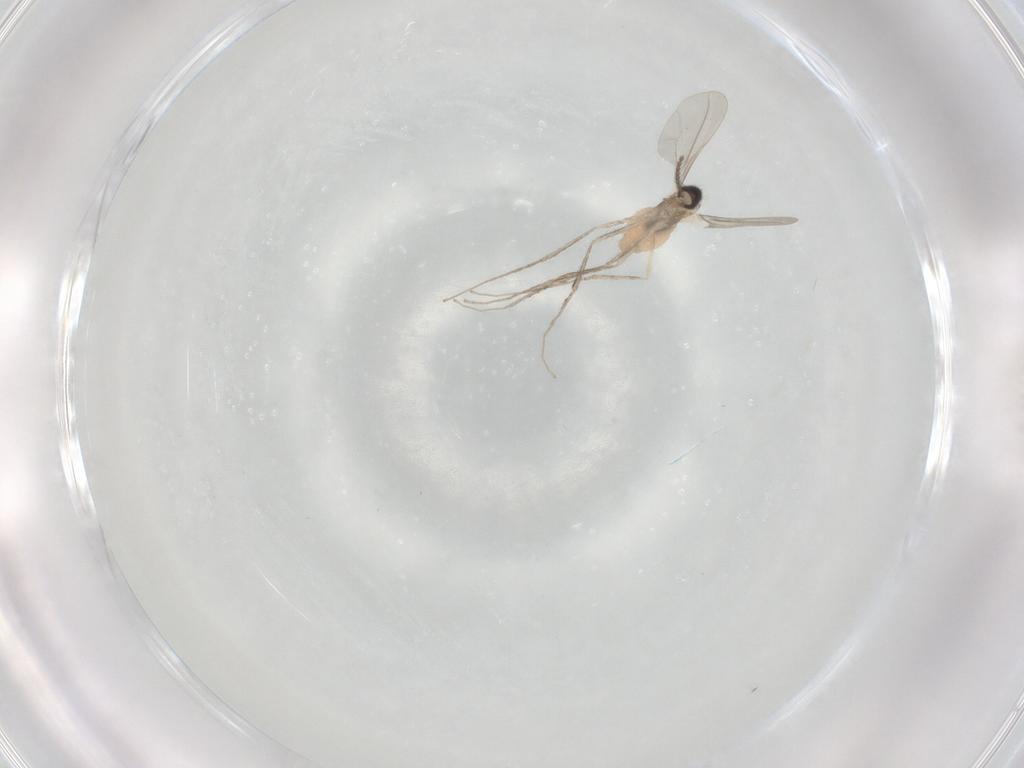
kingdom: Animalia
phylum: Arthropoda
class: Insecta
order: Diptera
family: Cecidomyiidae
